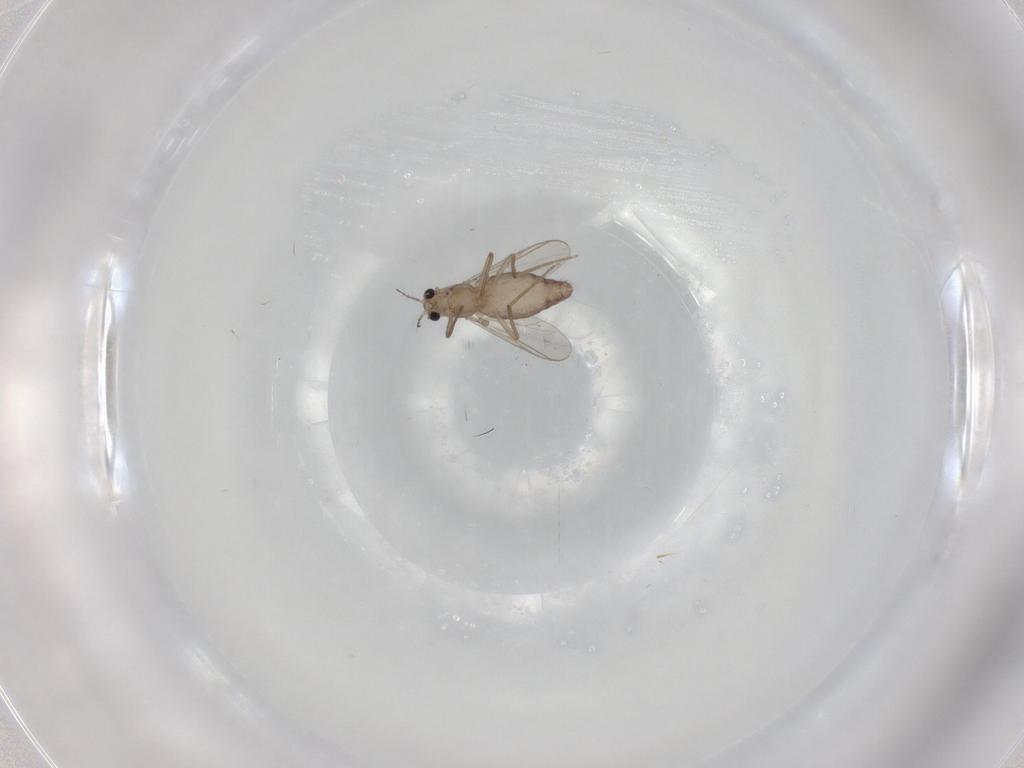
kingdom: Animalia
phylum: Arthropoda
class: Insecta
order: Diptera
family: Chironomidae
